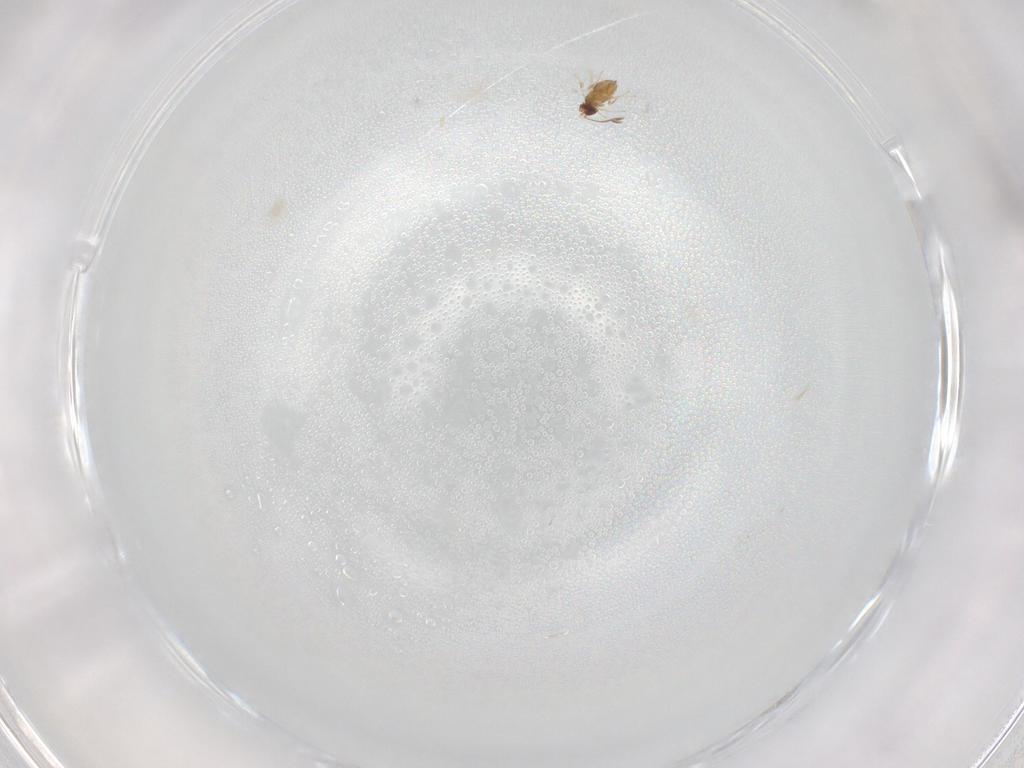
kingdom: Animalia
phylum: Arthropoda
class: Insecta
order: Hymenoptera
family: Scelionidae
